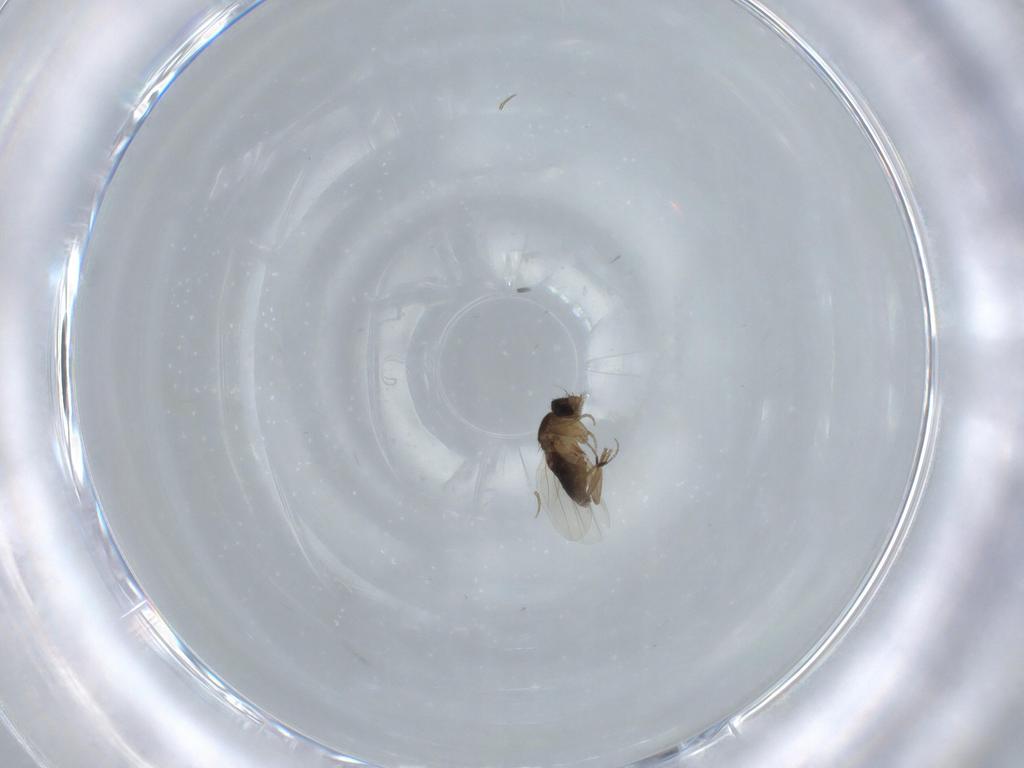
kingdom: Animalia
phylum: Arthropoda
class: Insecta
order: Diptera
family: Phoridae
